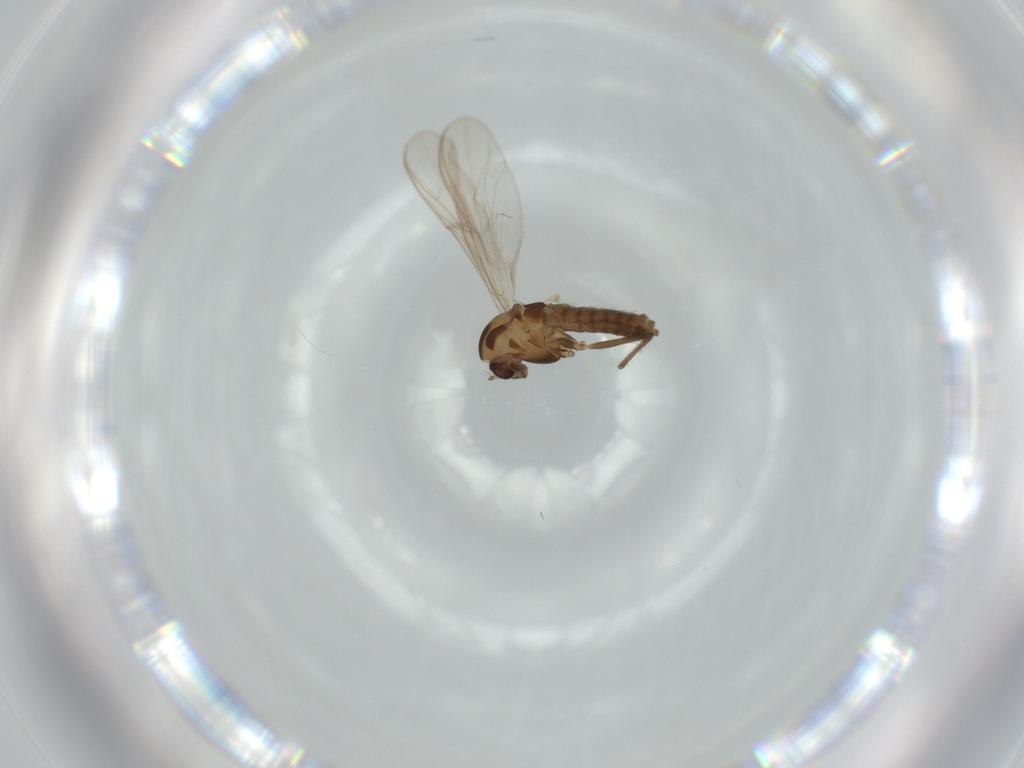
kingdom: Animalia
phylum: Arthropoda
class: Insecta
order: Diptera
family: Chironomidae
